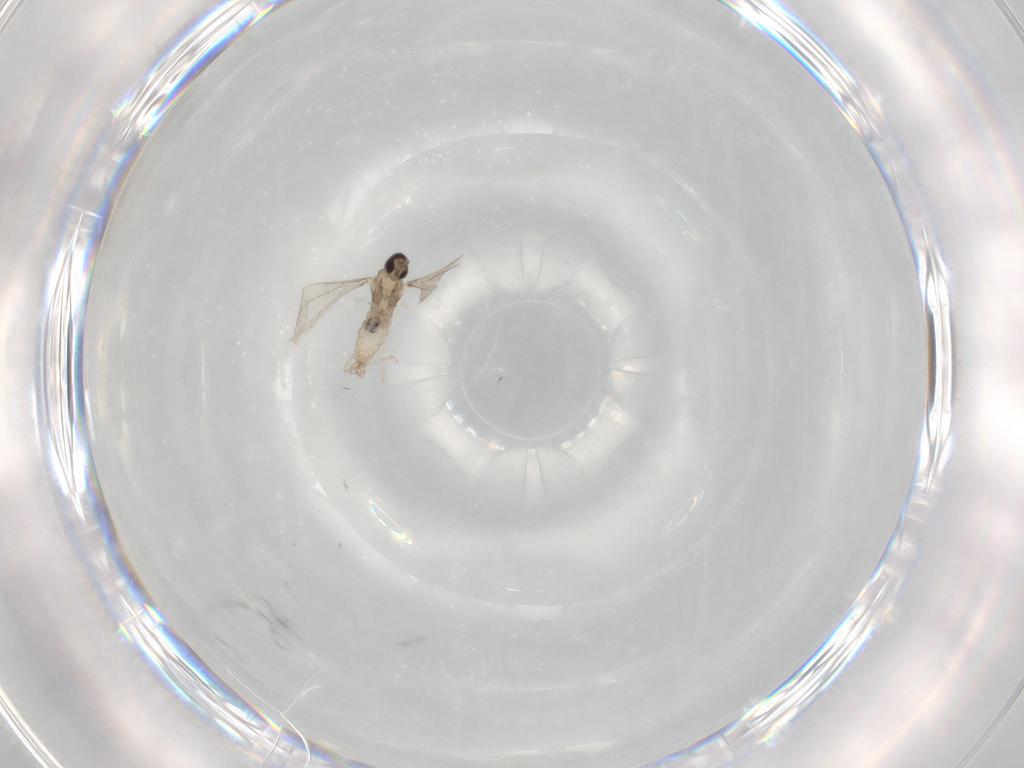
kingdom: Animalia
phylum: Arthropoda
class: Insecta
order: Diptera
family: Cecidomyiidae
